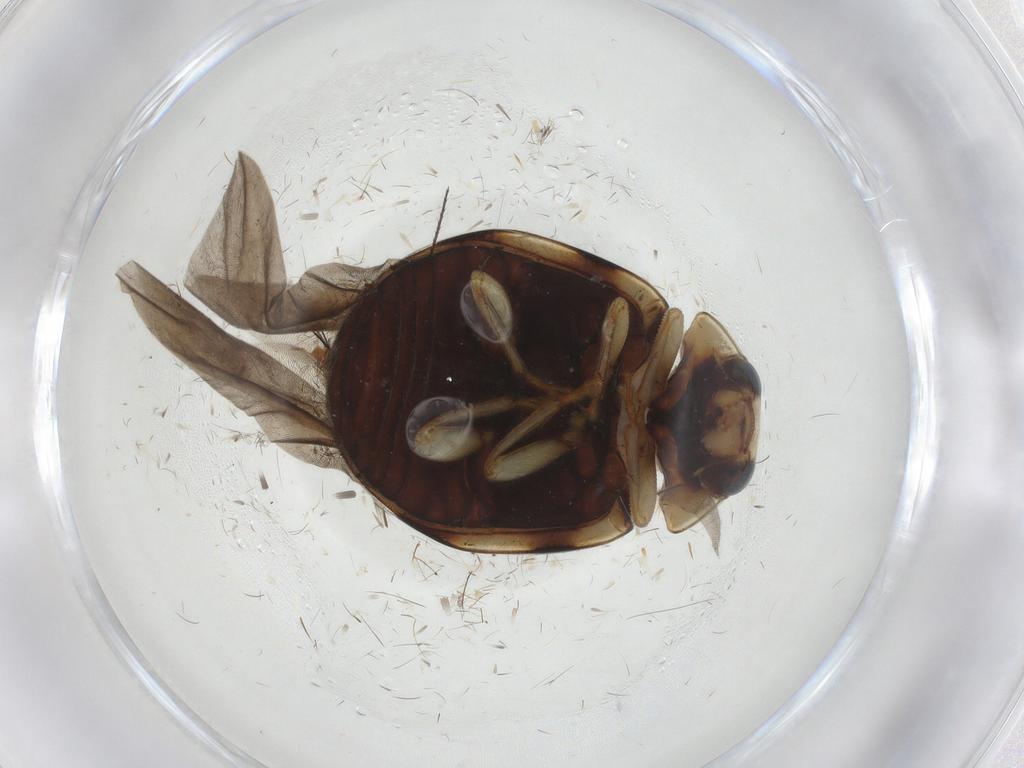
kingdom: Animalia
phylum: Arthropoda
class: Insecta
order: Coleoptera
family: Coccinellidae
